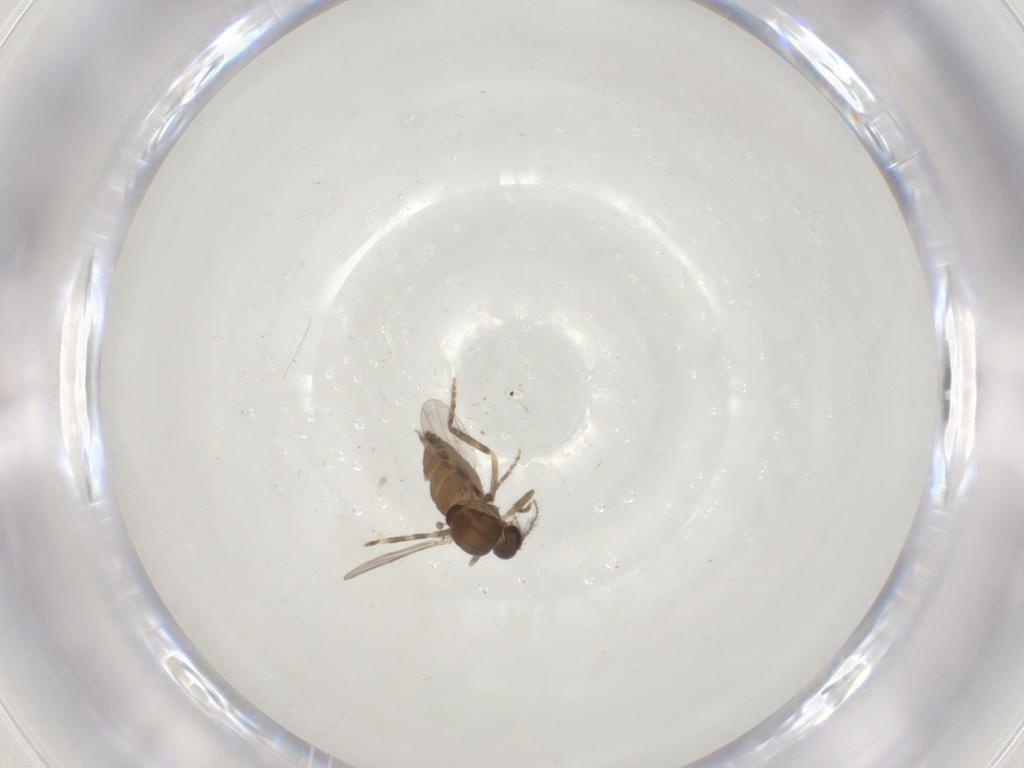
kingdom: Animalia
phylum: Arthropoda
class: Insecta
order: Diptera
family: Ceratopogonidae
